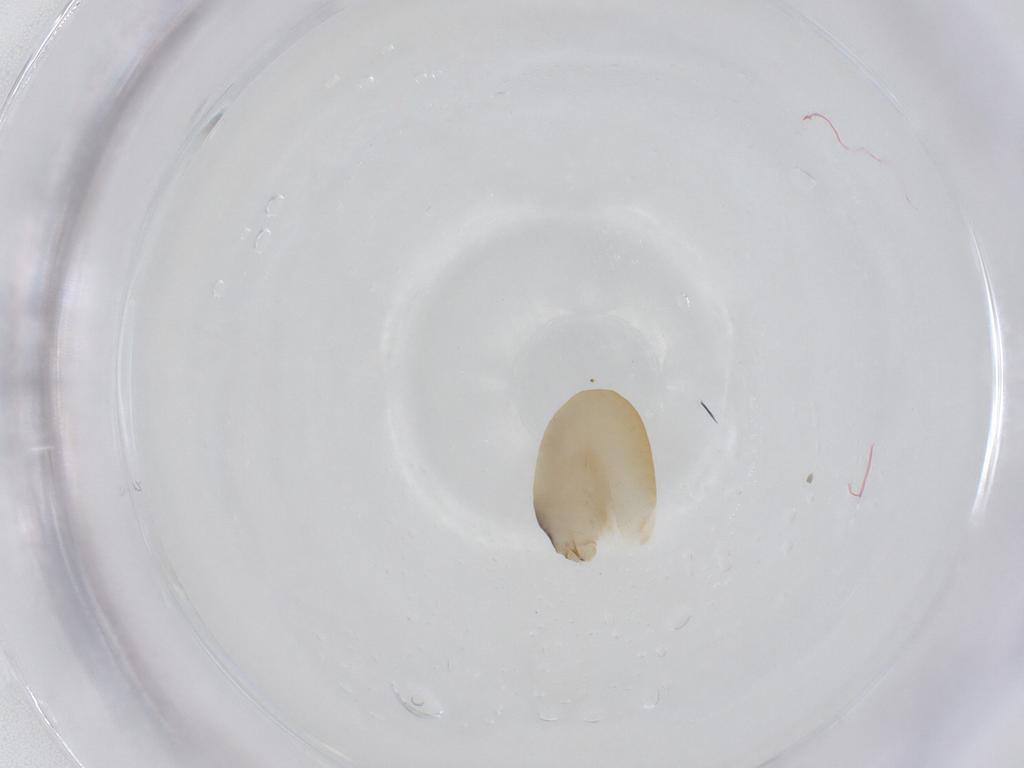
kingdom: Animalia
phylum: Arthropoda
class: Insecta
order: Hymenoptera
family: Dryinidae
